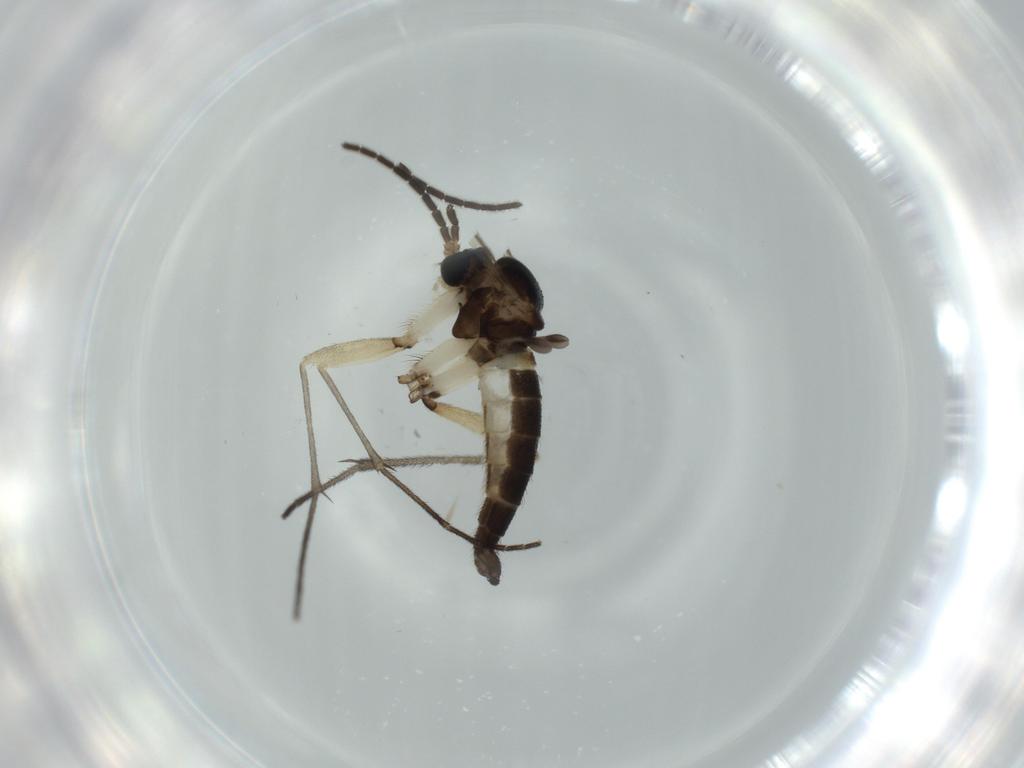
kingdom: Animalia
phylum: Arthropoda
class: Insecta
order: Diptera
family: Sciaridae
